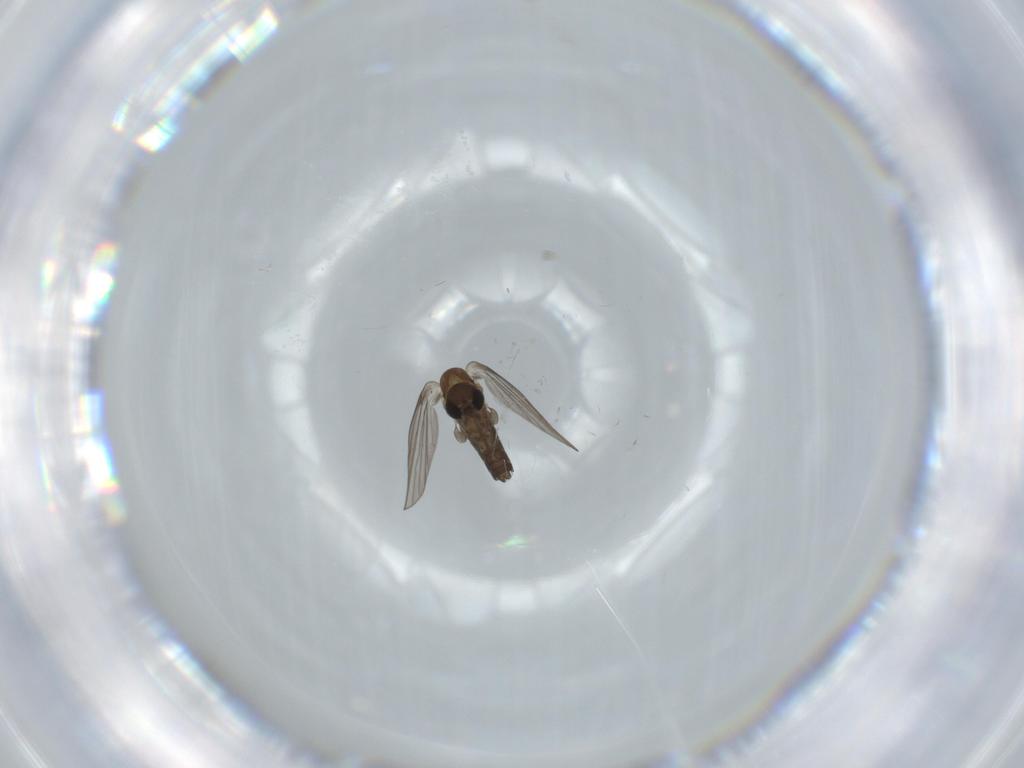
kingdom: Animalia
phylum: Arthropoda
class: Insecta
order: Diptera
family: Psychodidae
